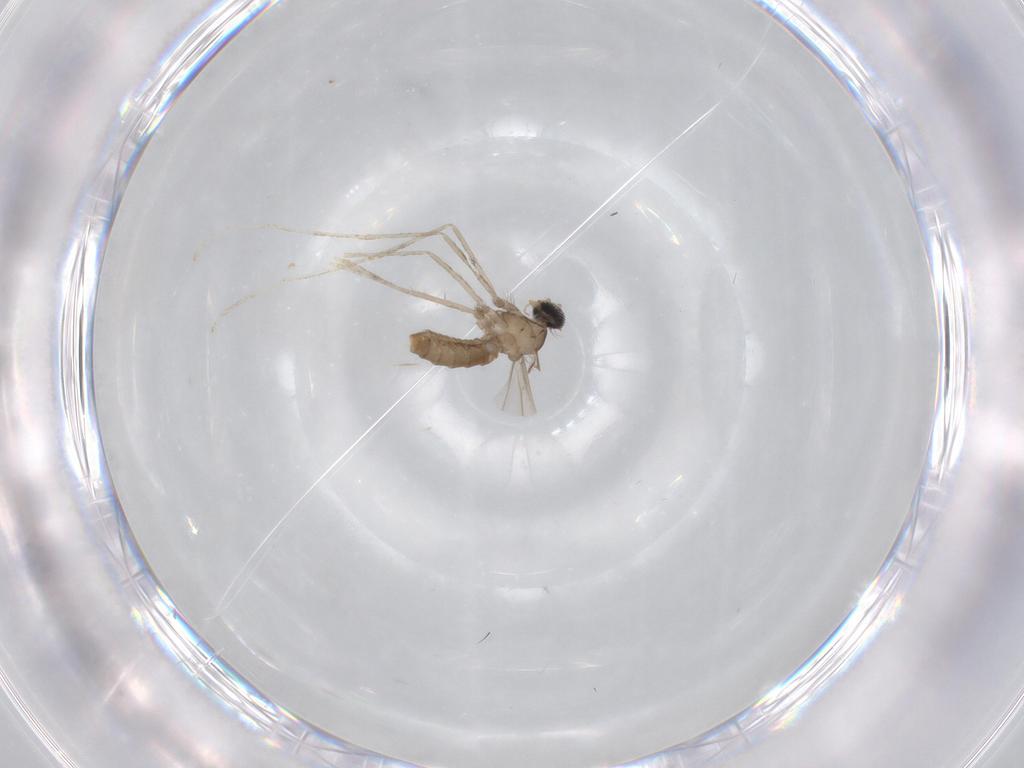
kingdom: Animalia
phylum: Arthropoda
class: Insecta
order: Diptera
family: Cecidomyiidae
